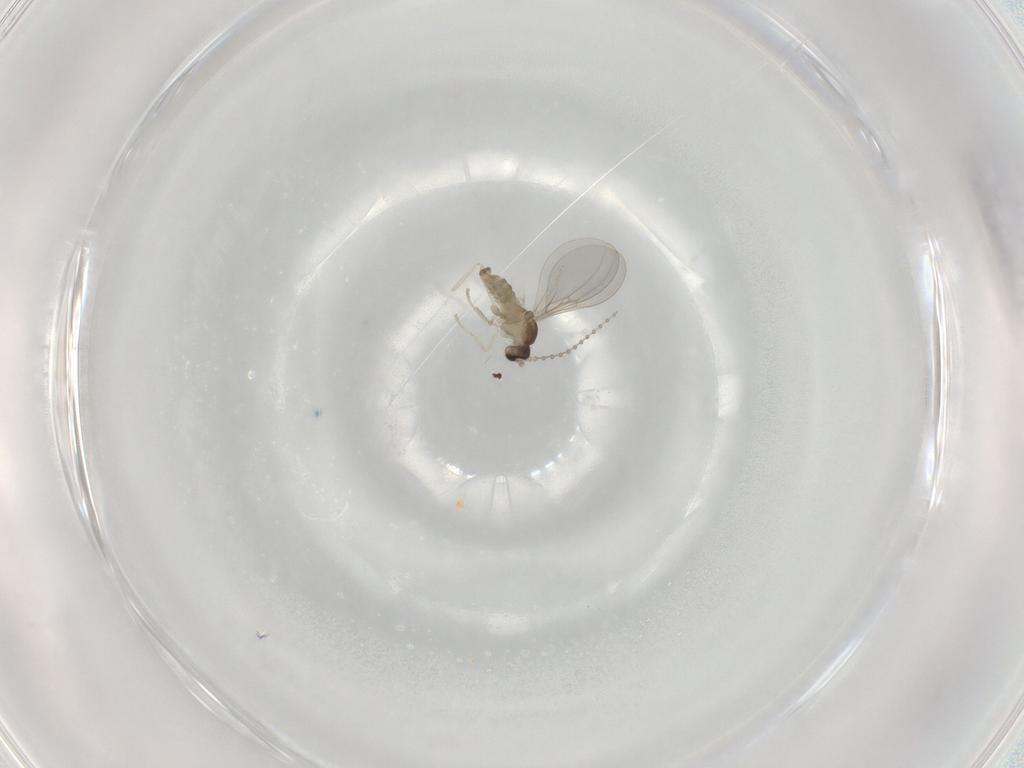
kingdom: Animalia
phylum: Arthropoda
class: Insecta
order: Diptera
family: Cecidomyiidae
